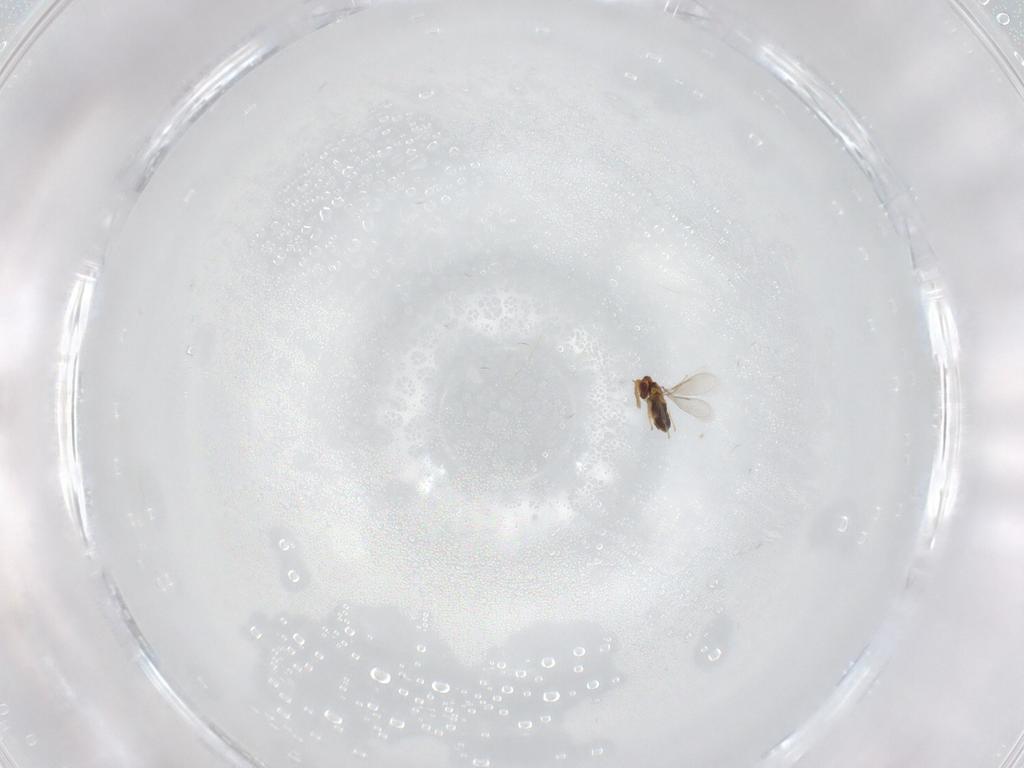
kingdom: Animalia
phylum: Arthropoda
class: Insecta
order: Hymenoptera
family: Aphelinidae
